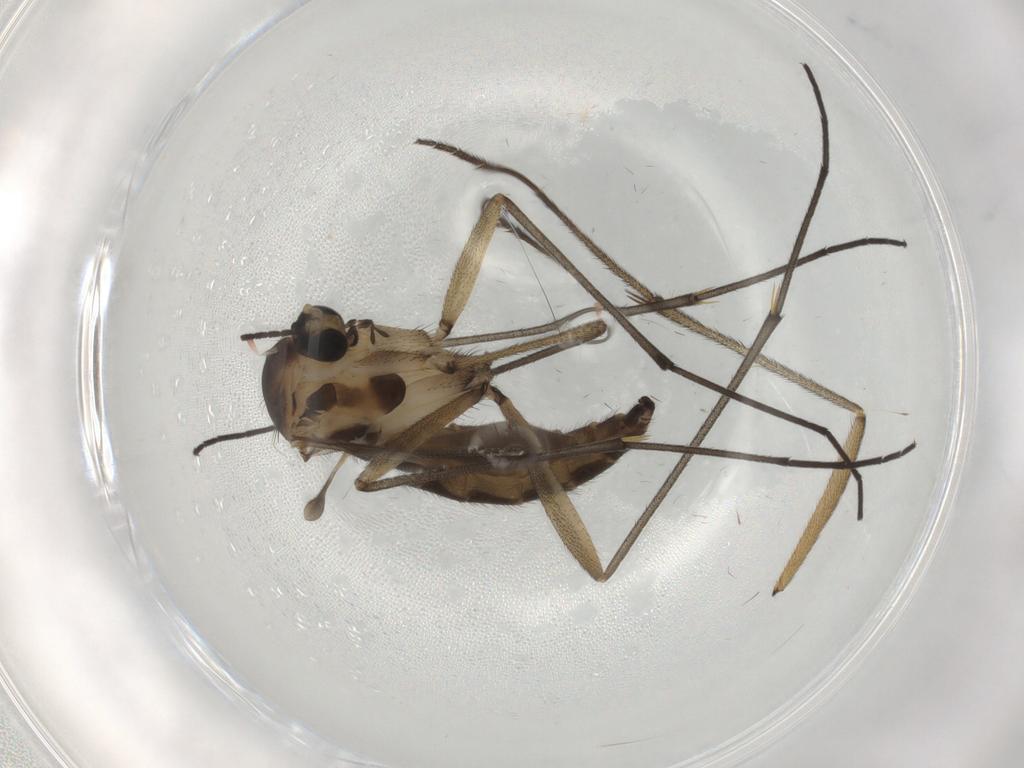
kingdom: Animalia
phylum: Arthropoda
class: Insecta
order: Diptera
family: Sciaridae
